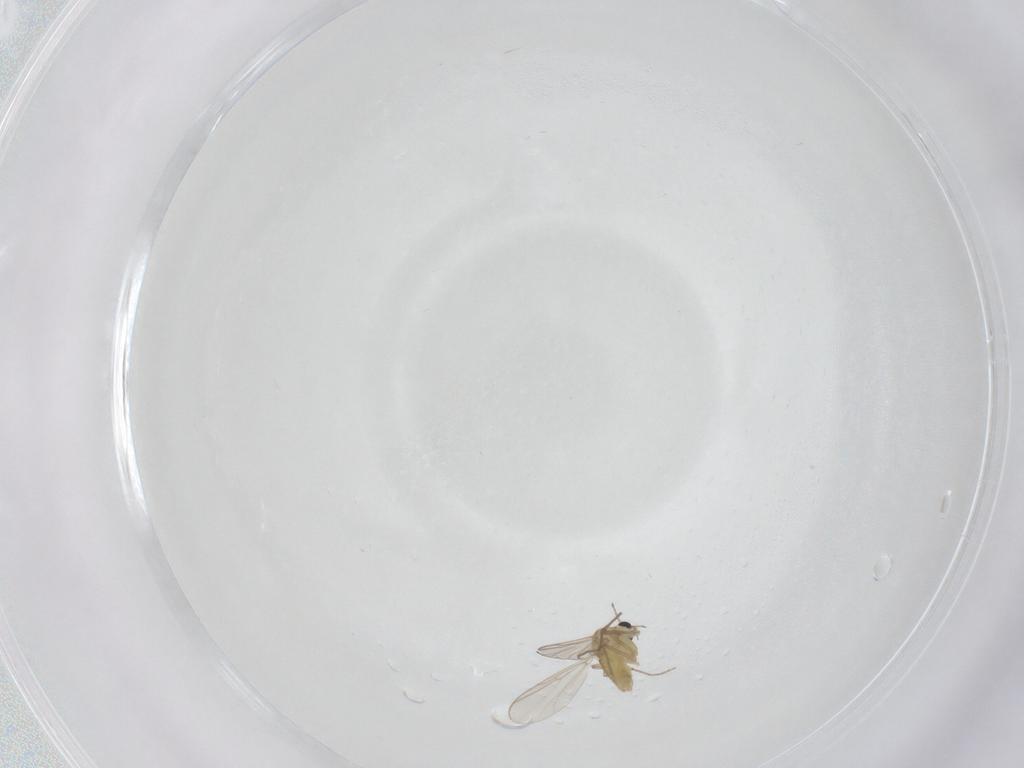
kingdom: Animalia
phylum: Arthropoda
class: Insecta
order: Diptera
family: Chironomidae
